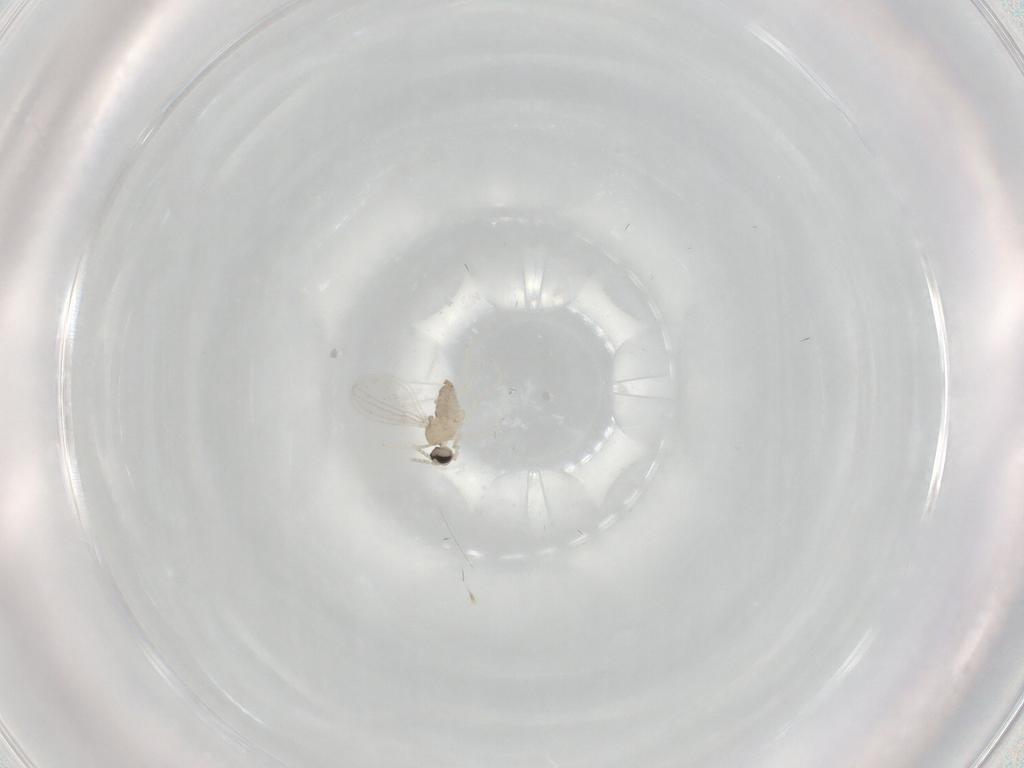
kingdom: Animalia
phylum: Arthropoda
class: Insecta
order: Diptera
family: Cecidomyiidae
